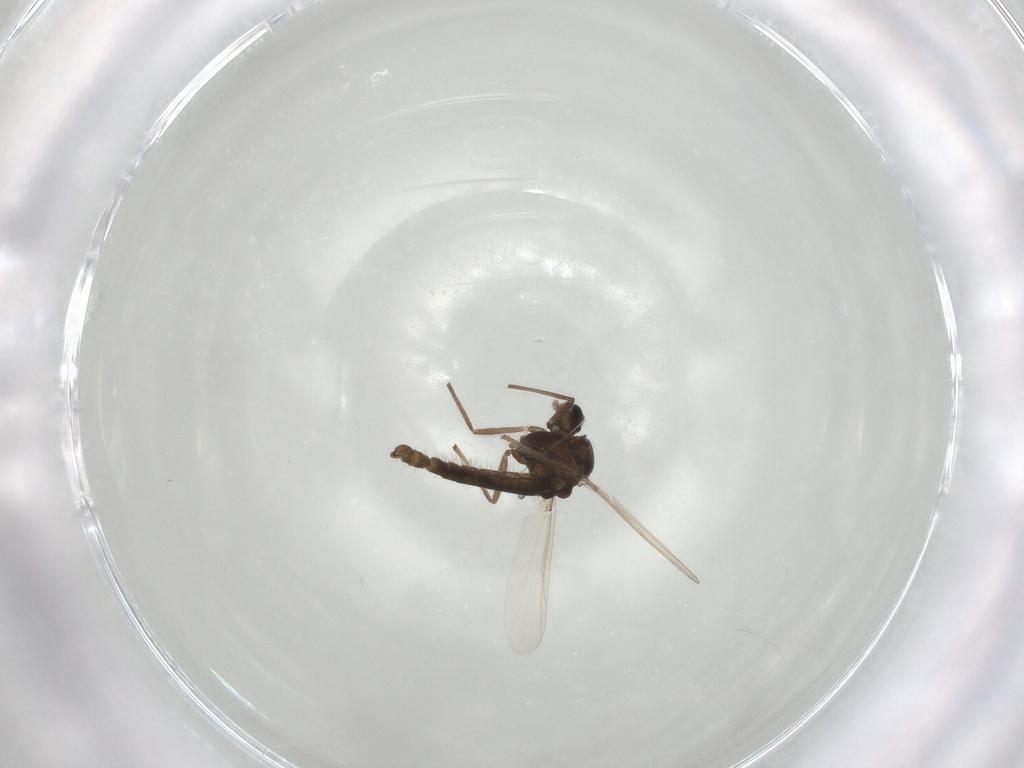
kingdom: Animalia
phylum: Arthropoda
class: Insecta
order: Diptera
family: Chironomidae
